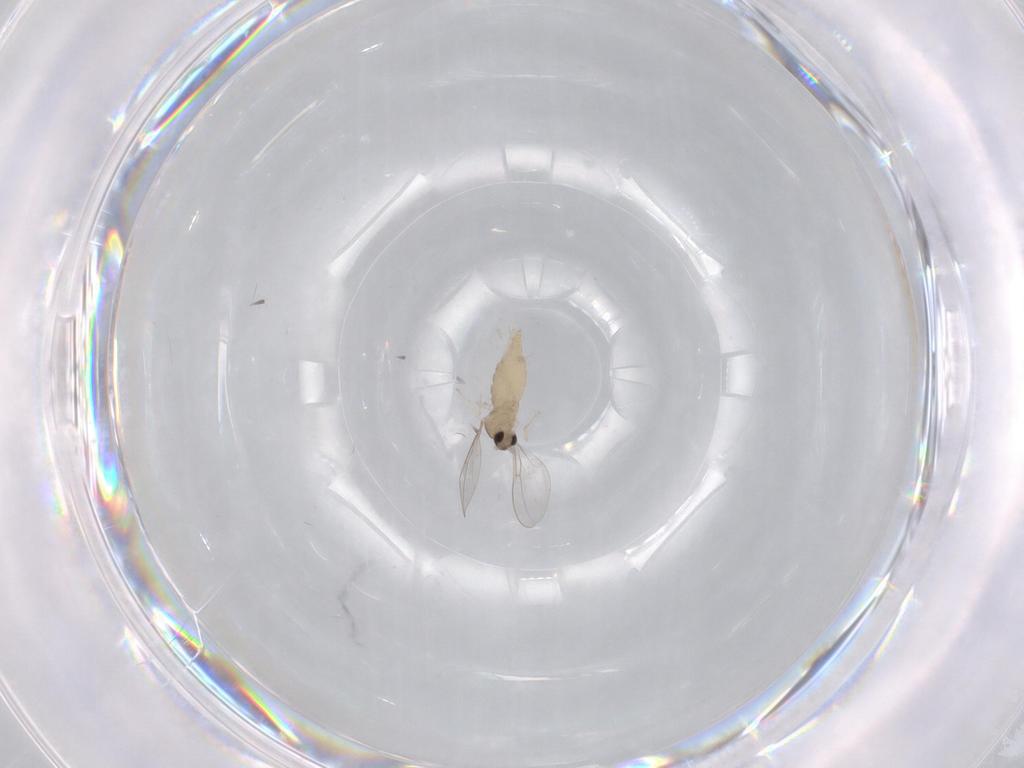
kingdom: Animalia
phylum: Arthropoda
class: Insecta
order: Diptera
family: Cecidomyiidae
